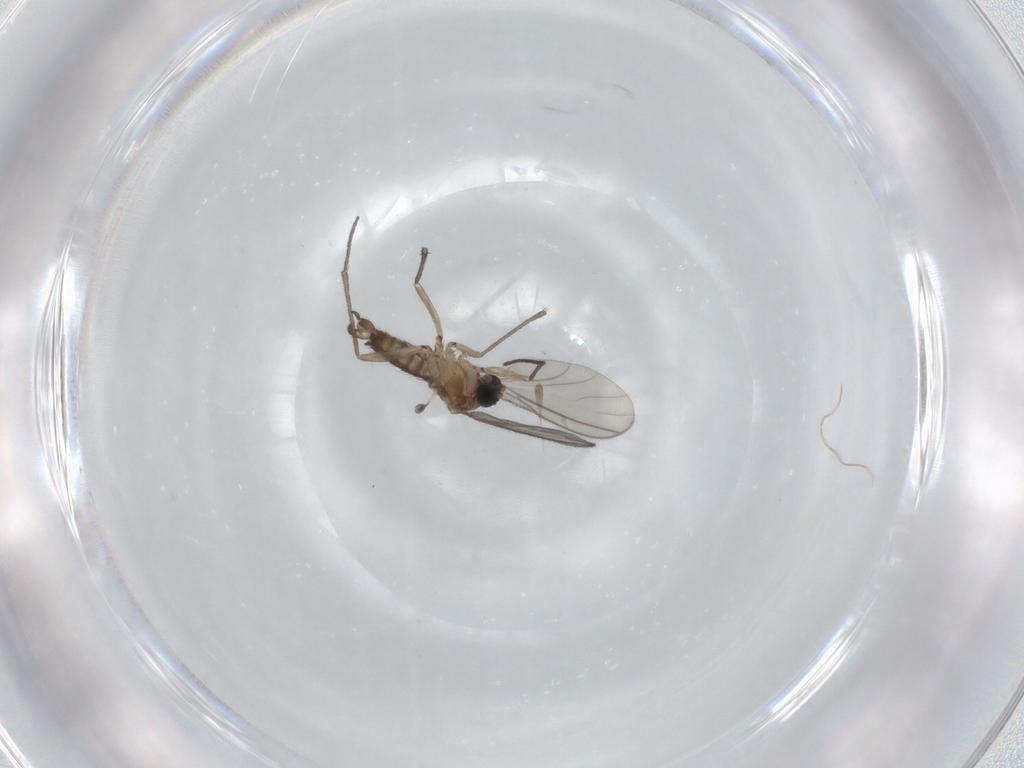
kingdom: Animalia
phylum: Arthropoda
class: Insecta
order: Diptera
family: Sciaridae
